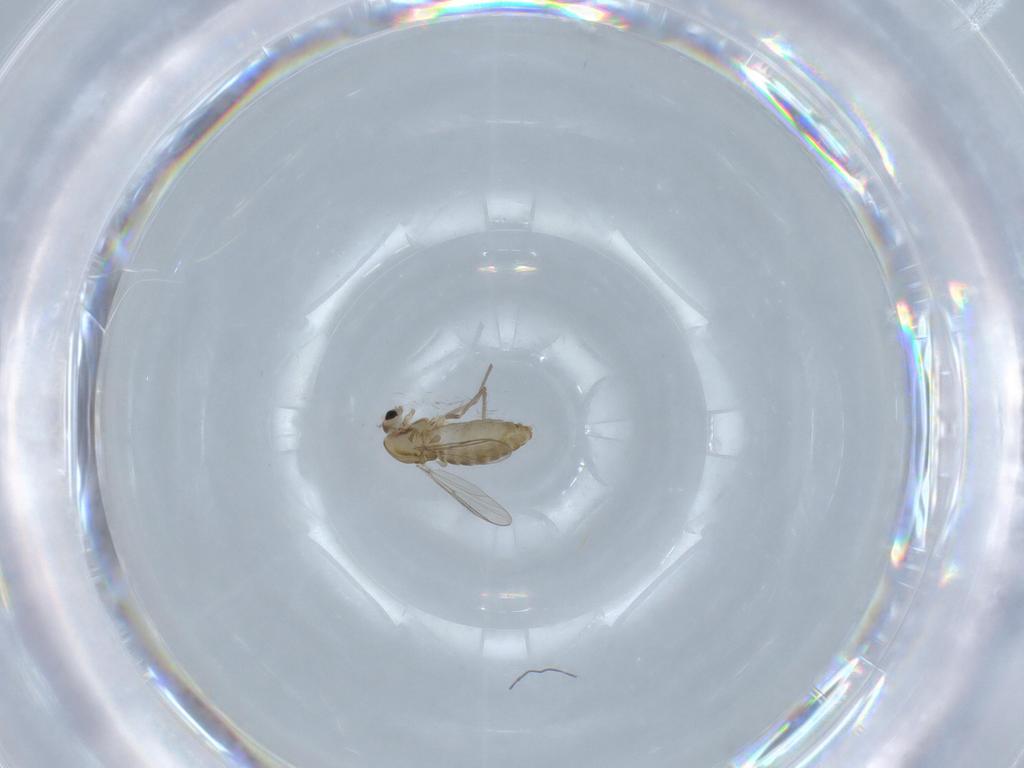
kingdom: Animalia
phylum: Arthropoda
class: Insecta
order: Diptera
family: Chironomidae
